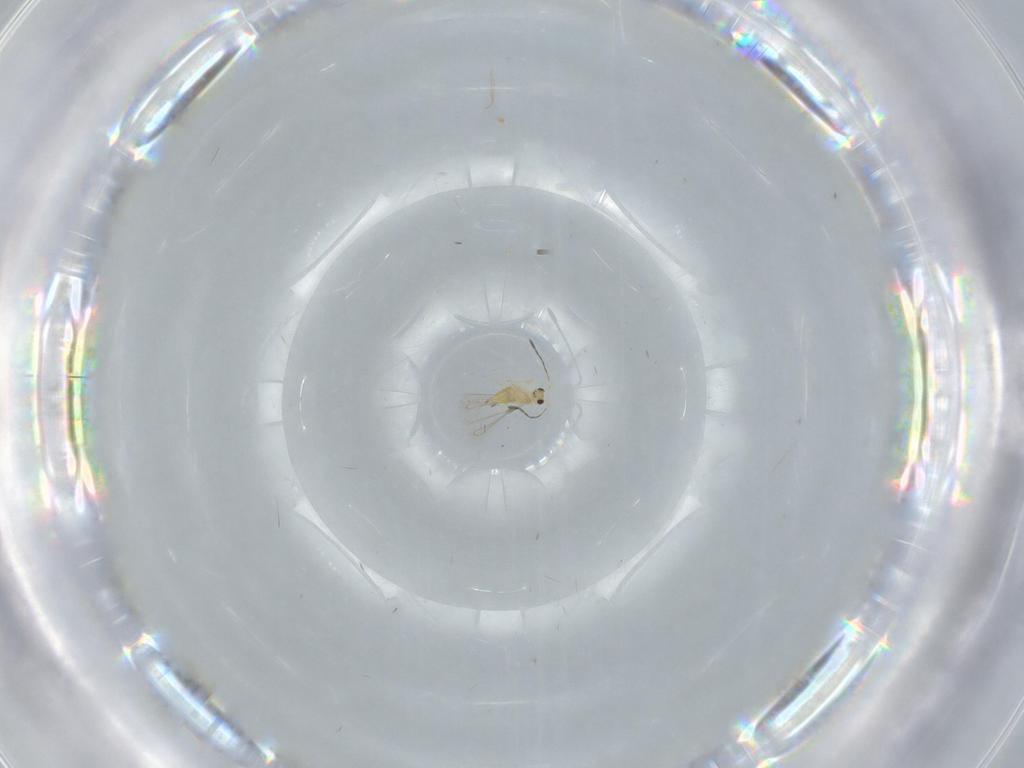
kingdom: Animalia
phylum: Arthropoda
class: Insecta
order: Hymenoptera
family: Mymaridae
